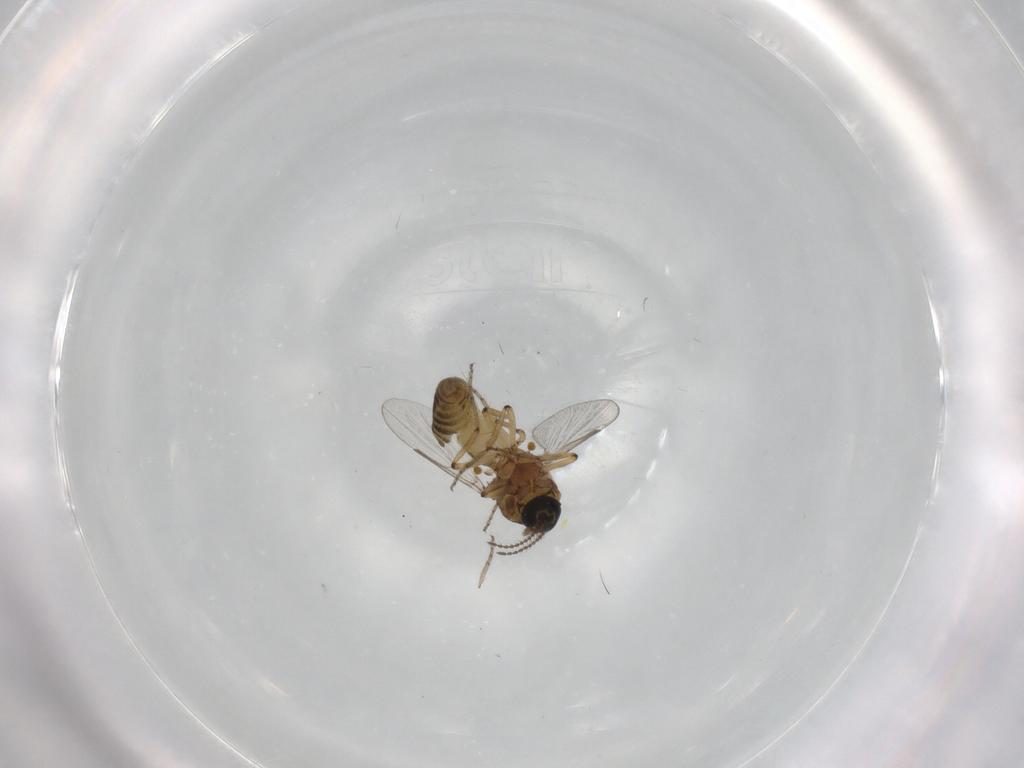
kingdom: Animalia
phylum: Arthropoda
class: Insecta
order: Diptera
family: Ceratopogonidae
